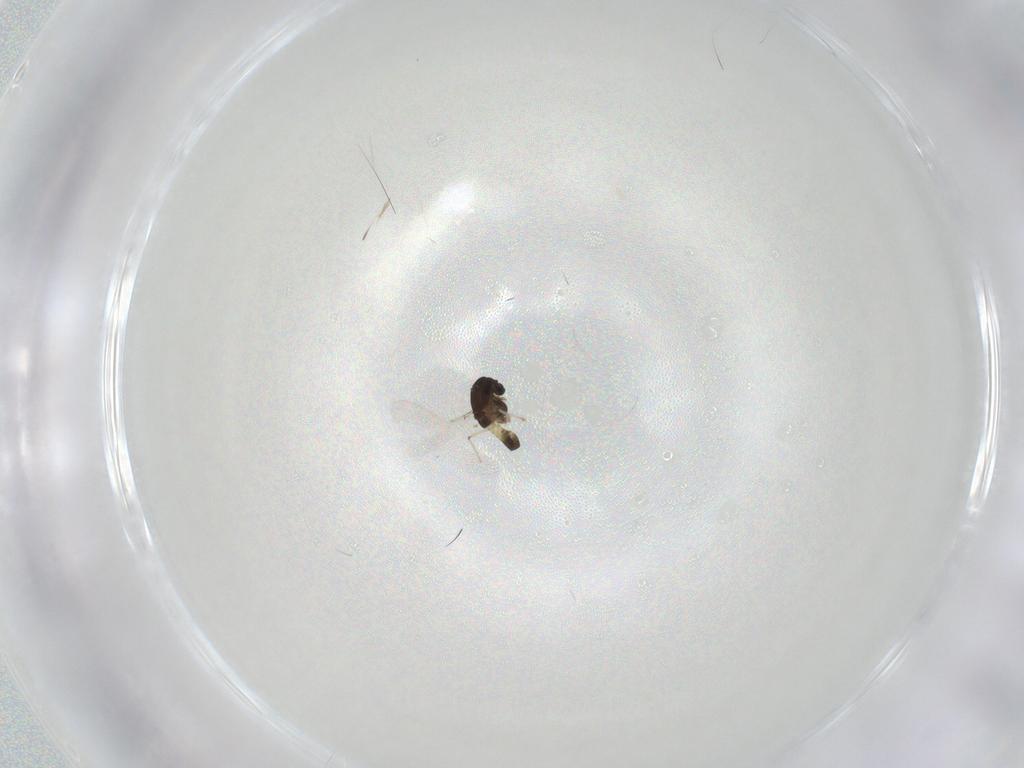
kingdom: Animalia
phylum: Arthropoda
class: Insecta
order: Diptera
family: Chironomidae
